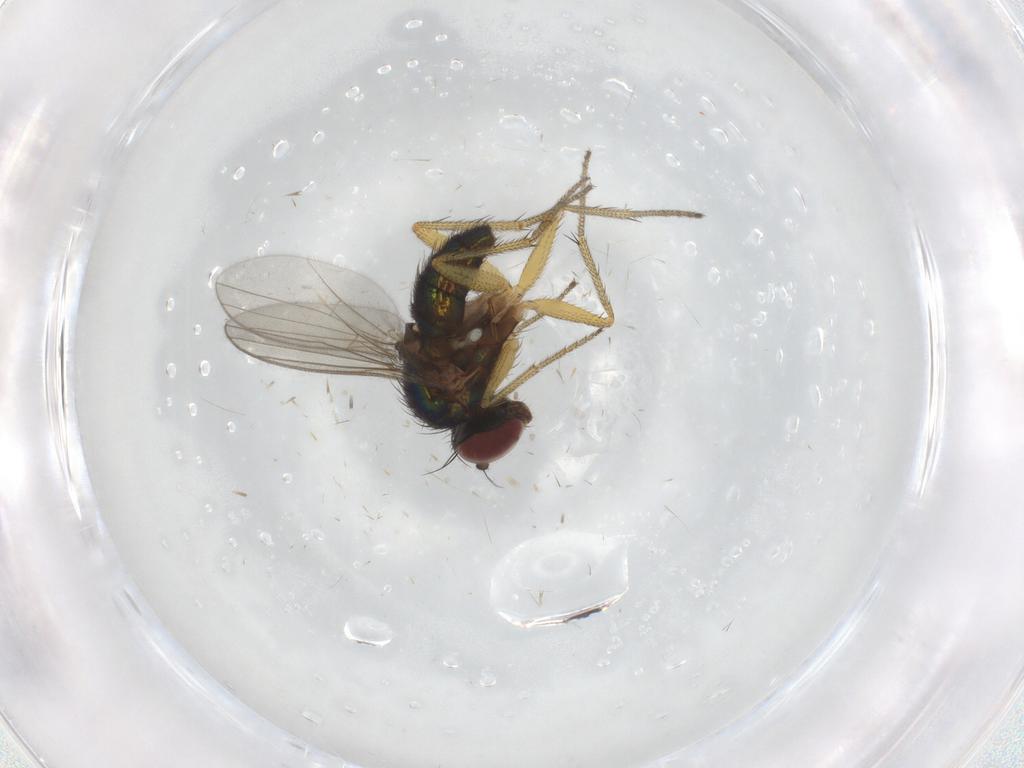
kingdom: Animalia
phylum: Arthropoda
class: Insecta
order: Diptera
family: Dolichopodidae
